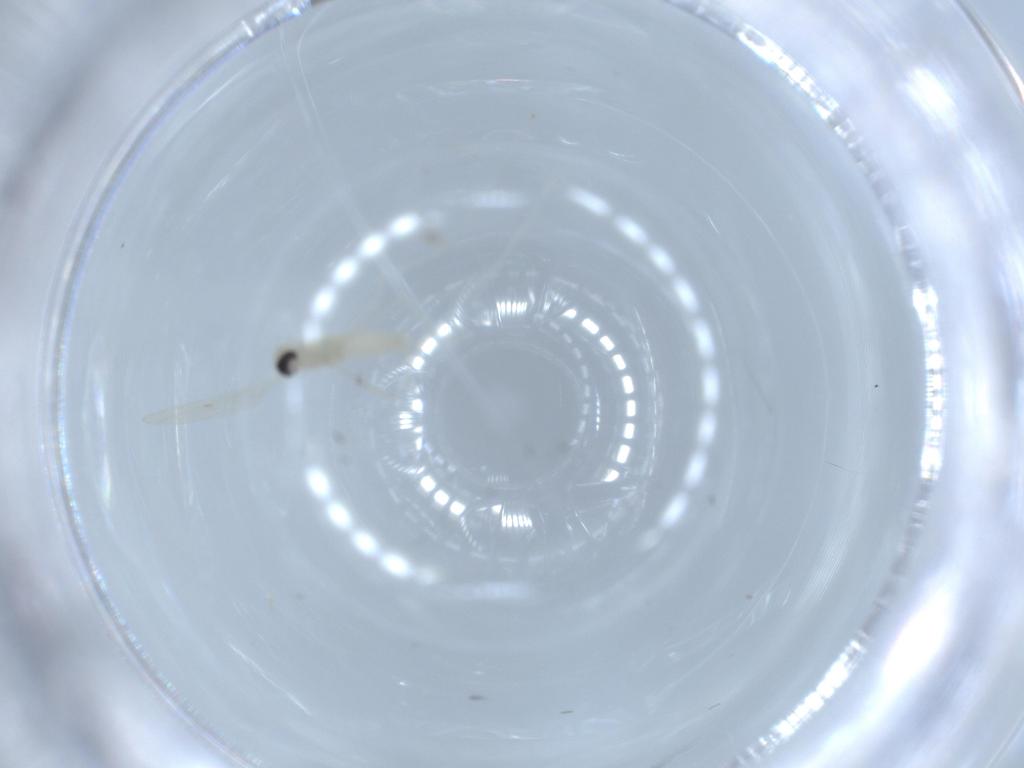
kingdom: Animalia
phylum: Arthropoda
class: Insecta
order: Diptera
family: Cecidomyiidae
